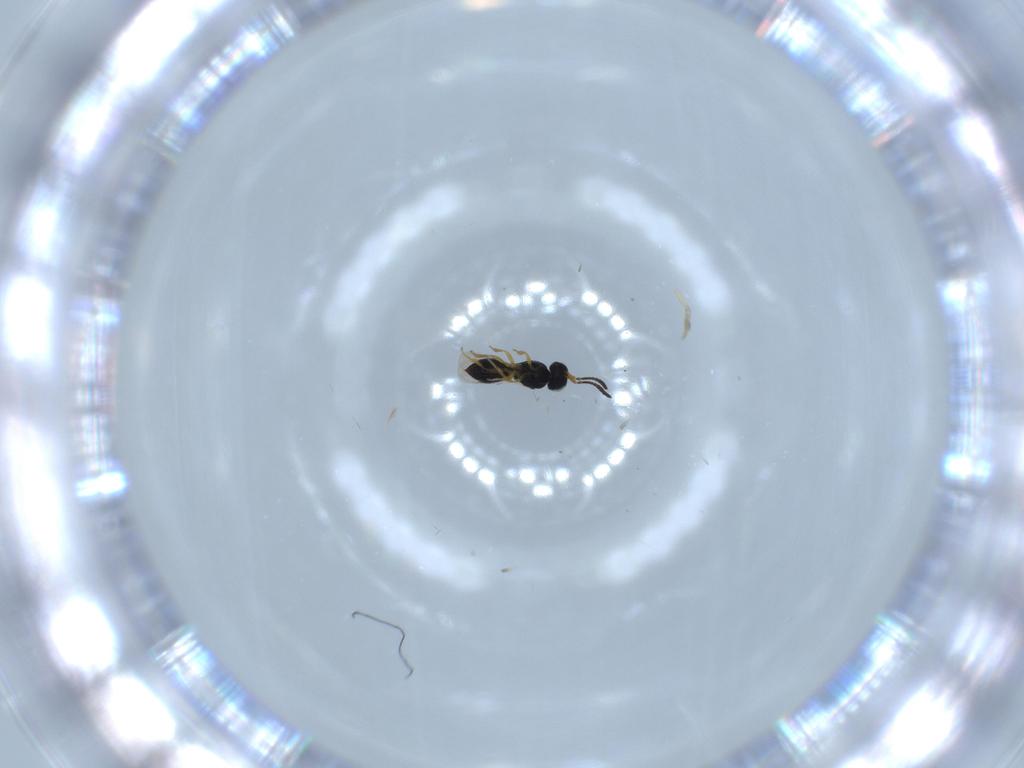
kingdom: Animalia
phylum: Arthropoda
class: Insecta
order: Hymenoptera
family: Scelionidae
